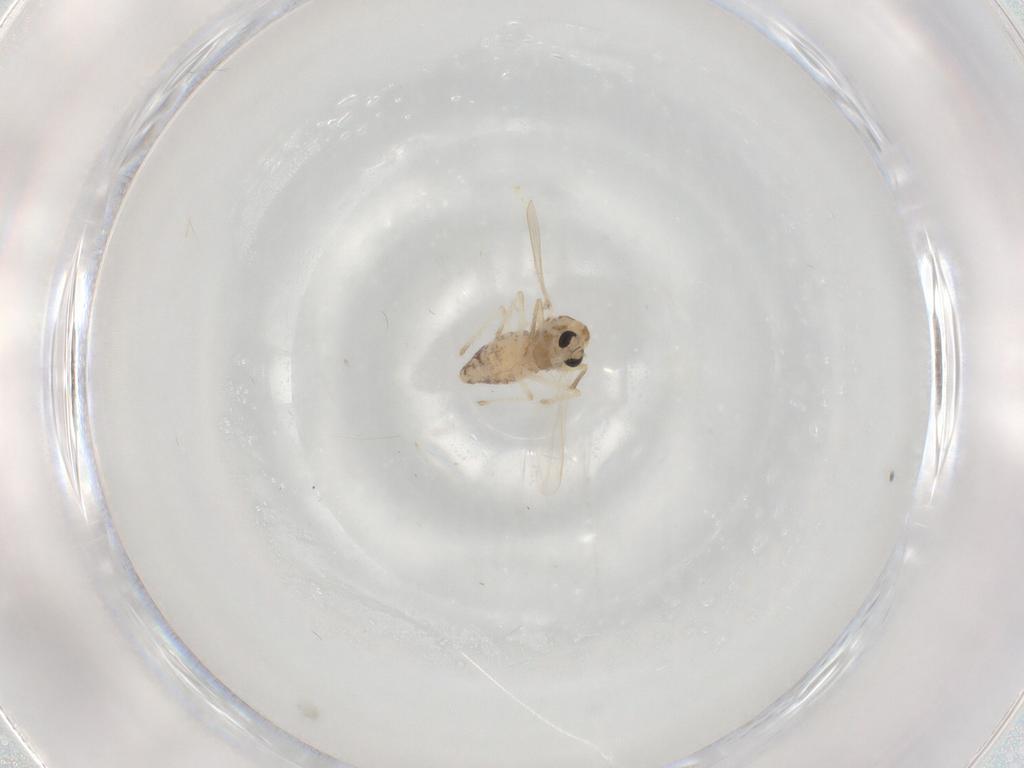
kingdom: Animalia
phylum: Arthropoda
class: Insecta
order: Diptera
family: Chironomidae
